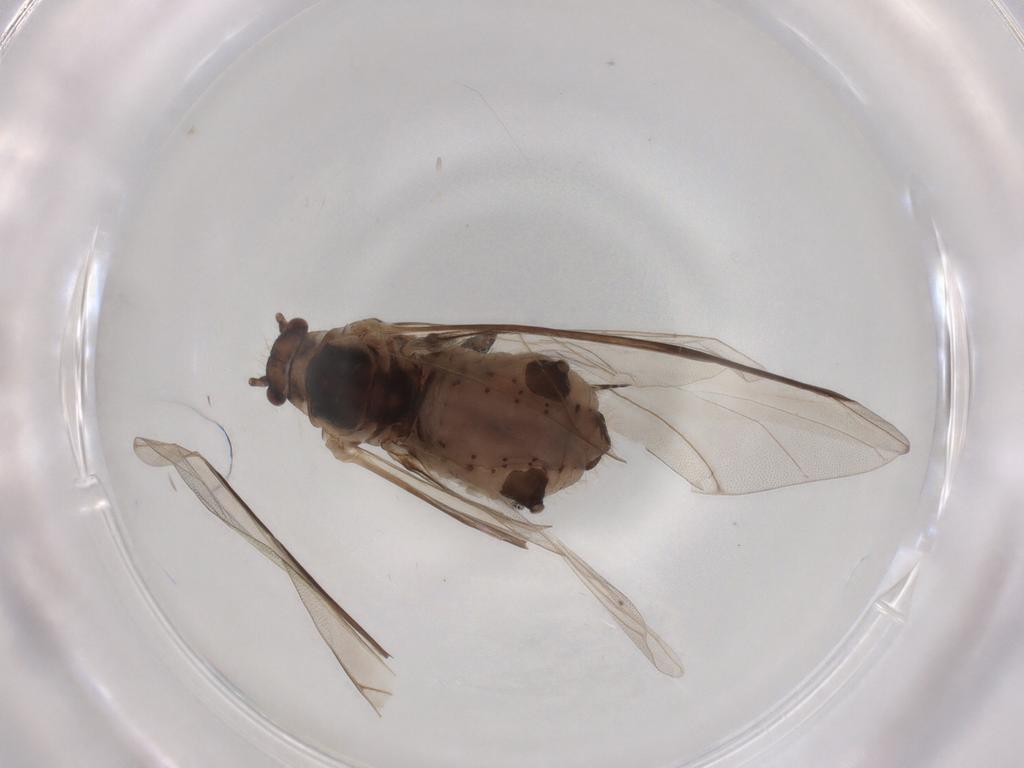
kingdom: Animalia
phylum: Arthropoda
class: Insecta
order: Hemiptera
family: Aphididae
